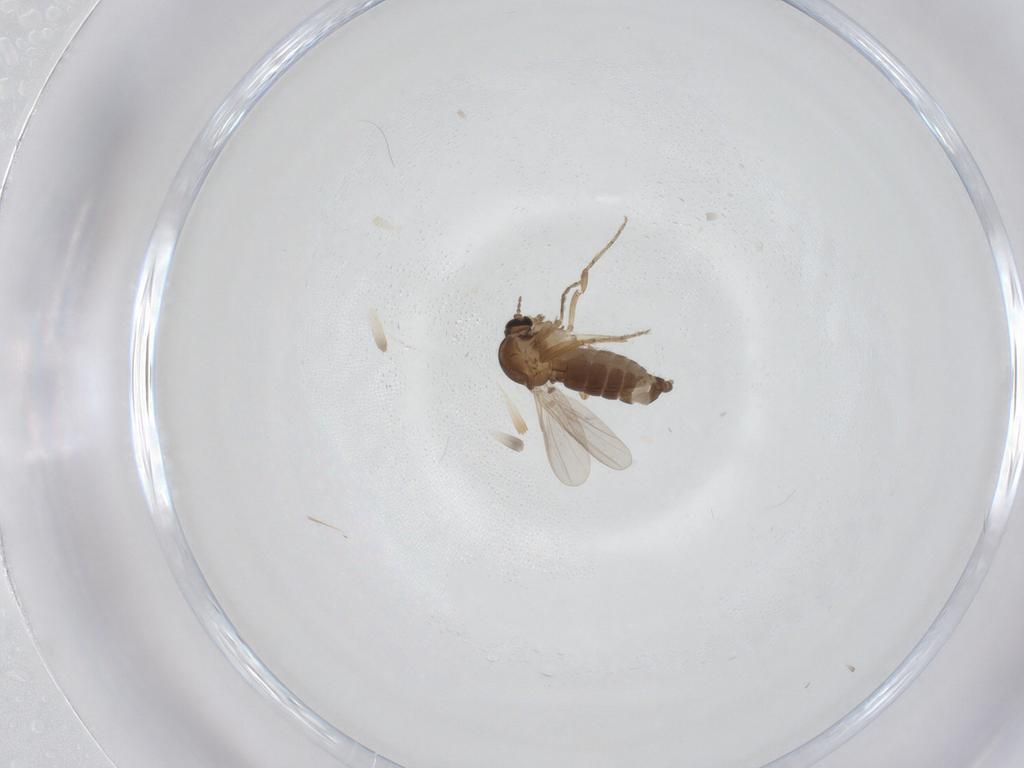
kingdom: Animalia
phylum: Arthropoda
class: Insecta
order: Diptera
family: Ceratopogonidae
